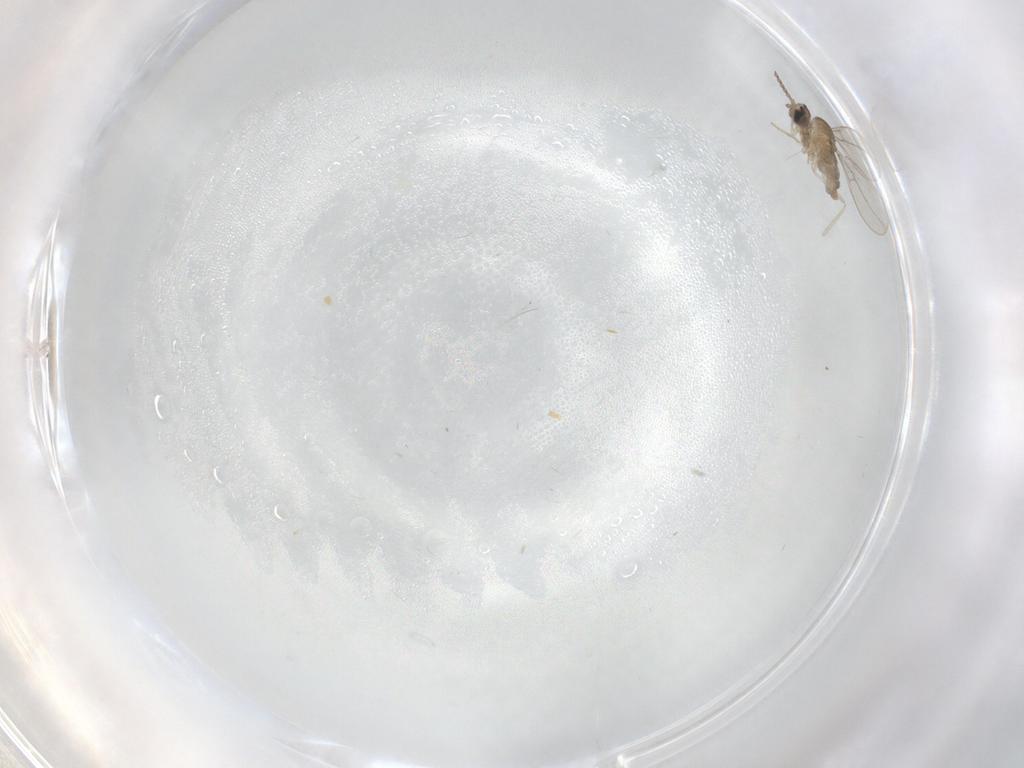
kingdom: Animalia
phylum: Arthropoda
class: Insecta
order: Diptera
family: Cecidomyiidae
